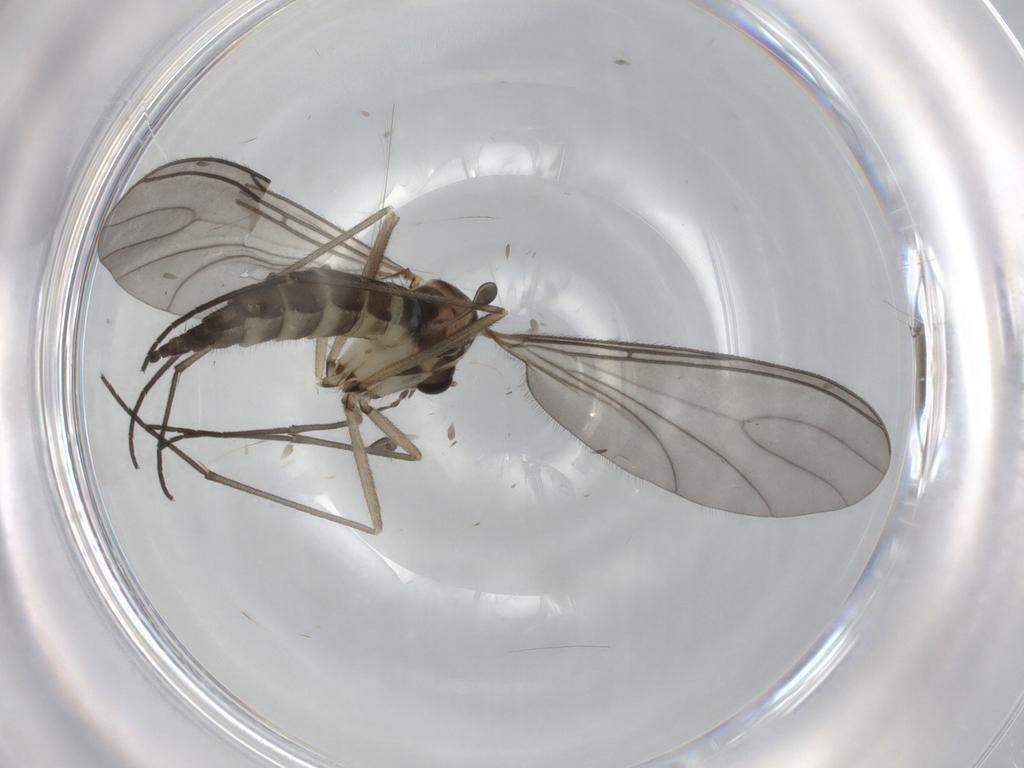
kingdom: Animalia
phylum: Arthropoda
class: Insecta
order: Diptera
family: Sciaridae
